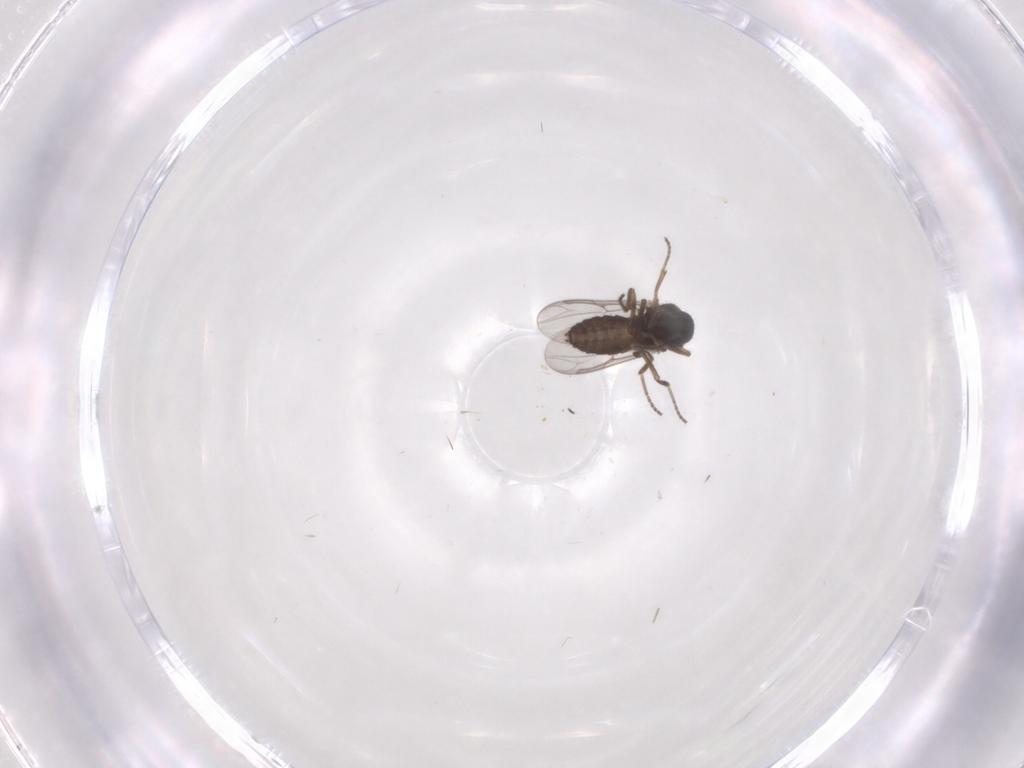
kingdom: Animalia
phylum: Arthropoda
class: Insecta
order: Diptera
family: Ceratopogonidae
